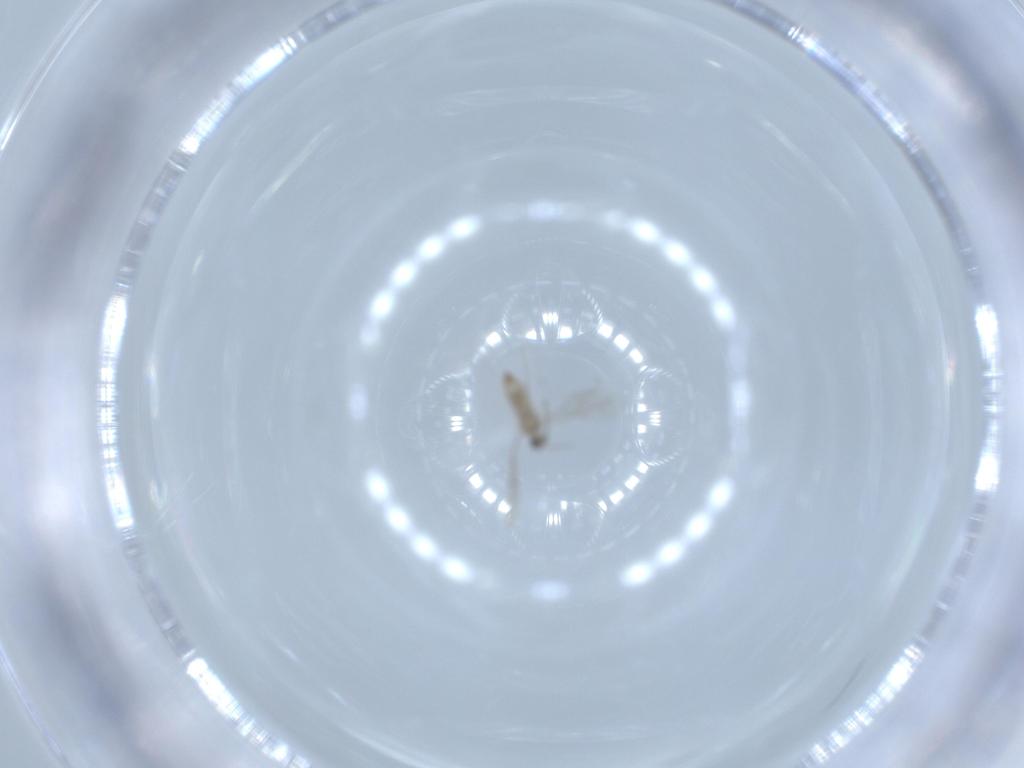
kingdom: Animalia
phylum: Arthropoda
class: Insecta
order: Diptera
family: Cecidomyiidae
